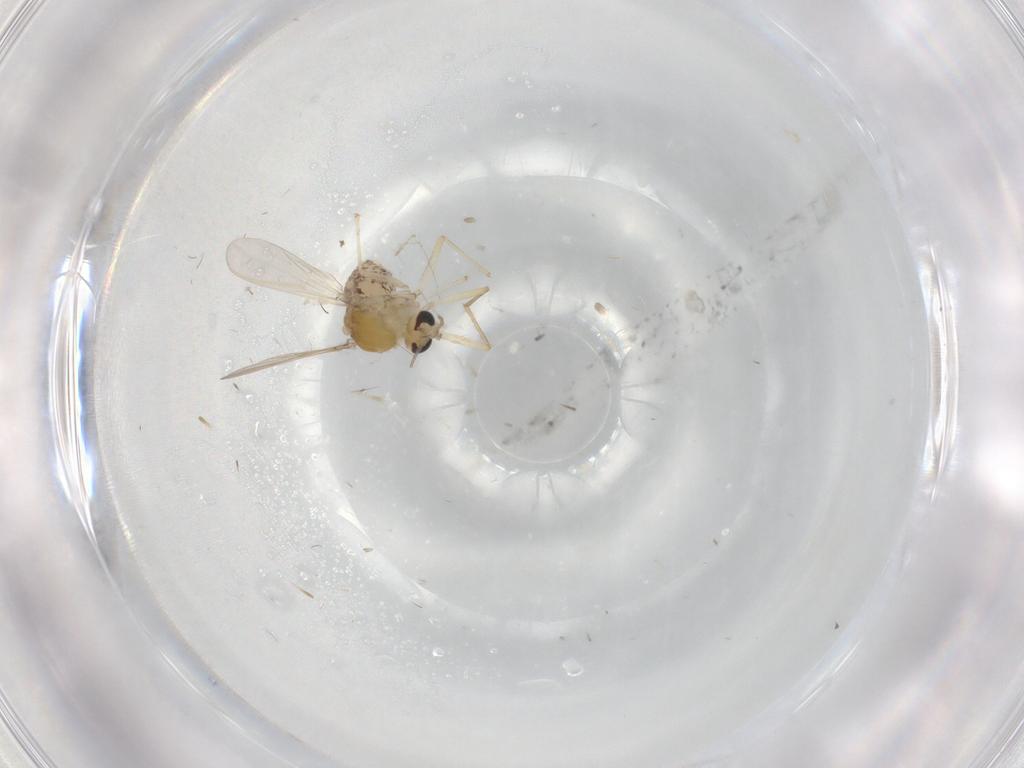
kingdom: Animalia
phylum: Arthropoda
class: Insecta
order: Diptera
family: Chironomidae
